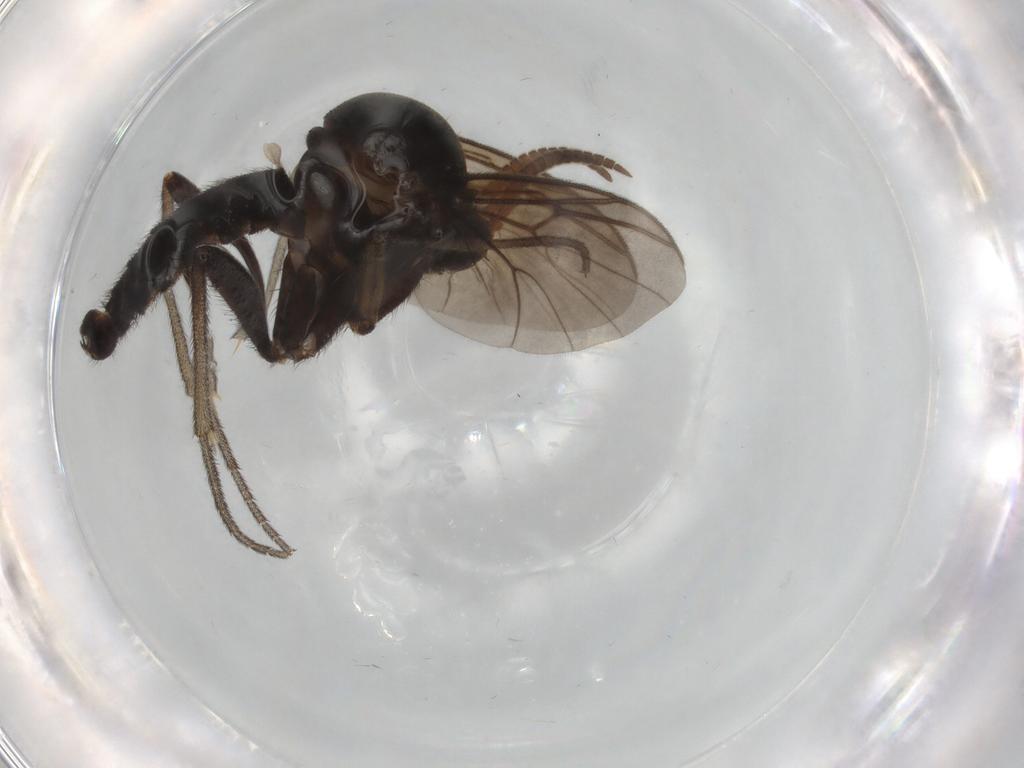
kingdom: Animalia
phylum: Arthropoda
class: Insecta
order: Diptera
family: Psychodidae
